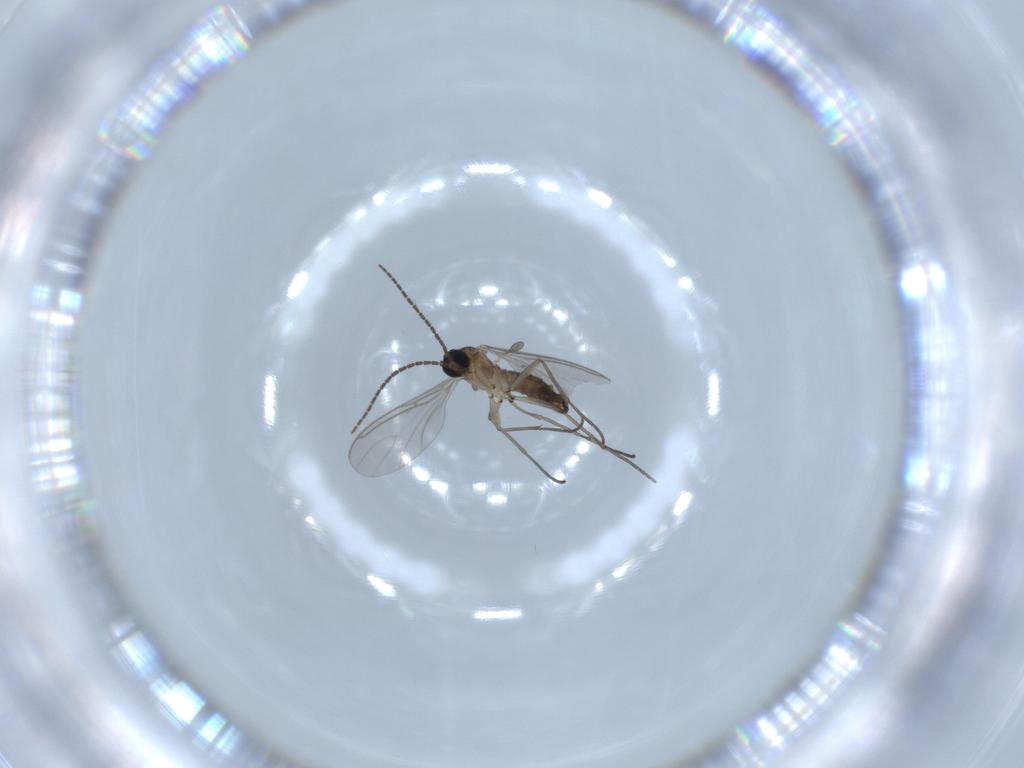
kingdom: Animalia
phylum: Arthropoda
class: Insecta
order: Diptera
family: Sciaridae
